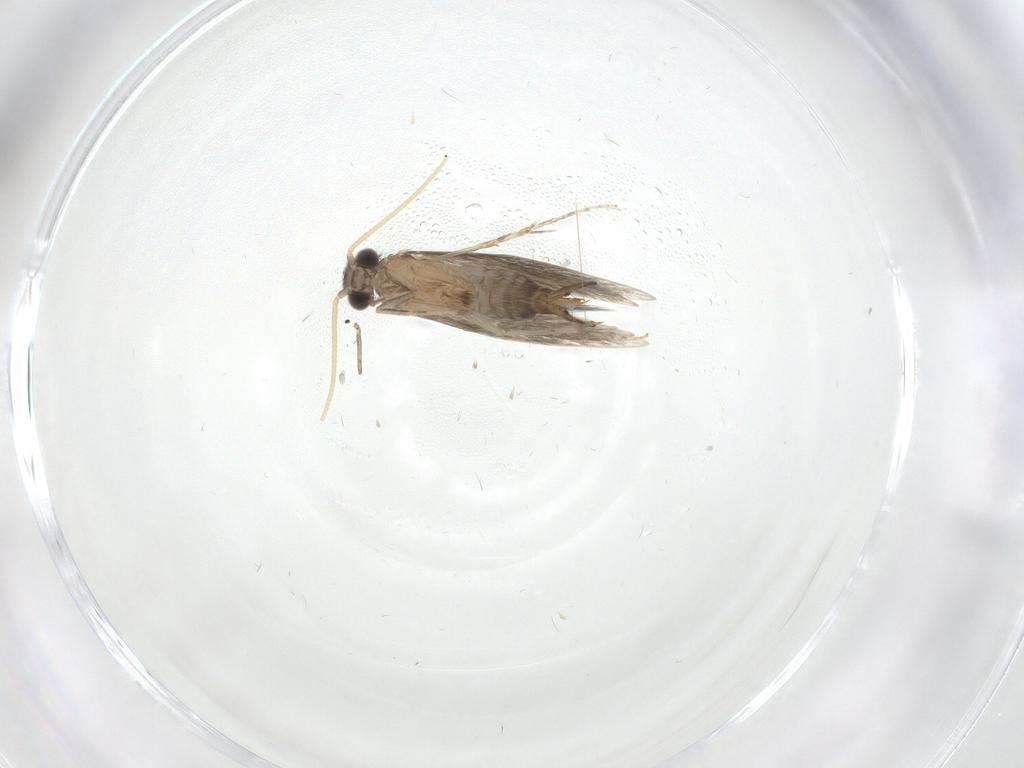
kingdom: Animalia
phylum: Arthropoda
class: Insecta
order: Trichoptera
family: Hydroptilidae
